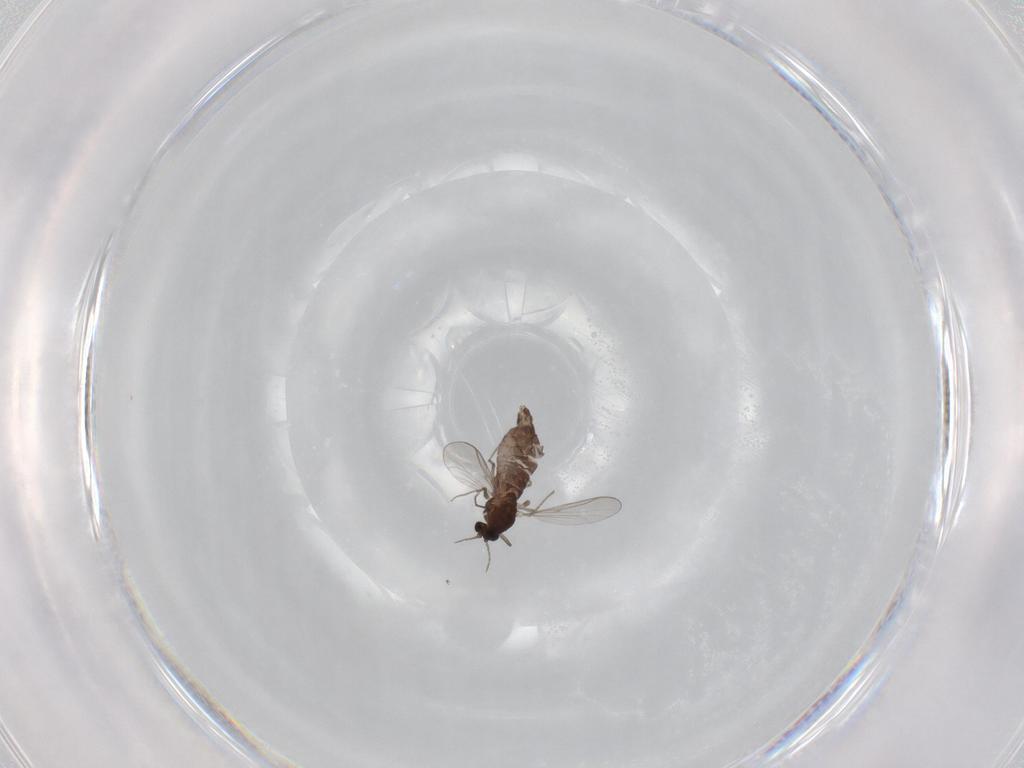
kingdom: Animalia
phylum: Arthropoda
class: Insecta
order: Diptera
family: Chironomidae
